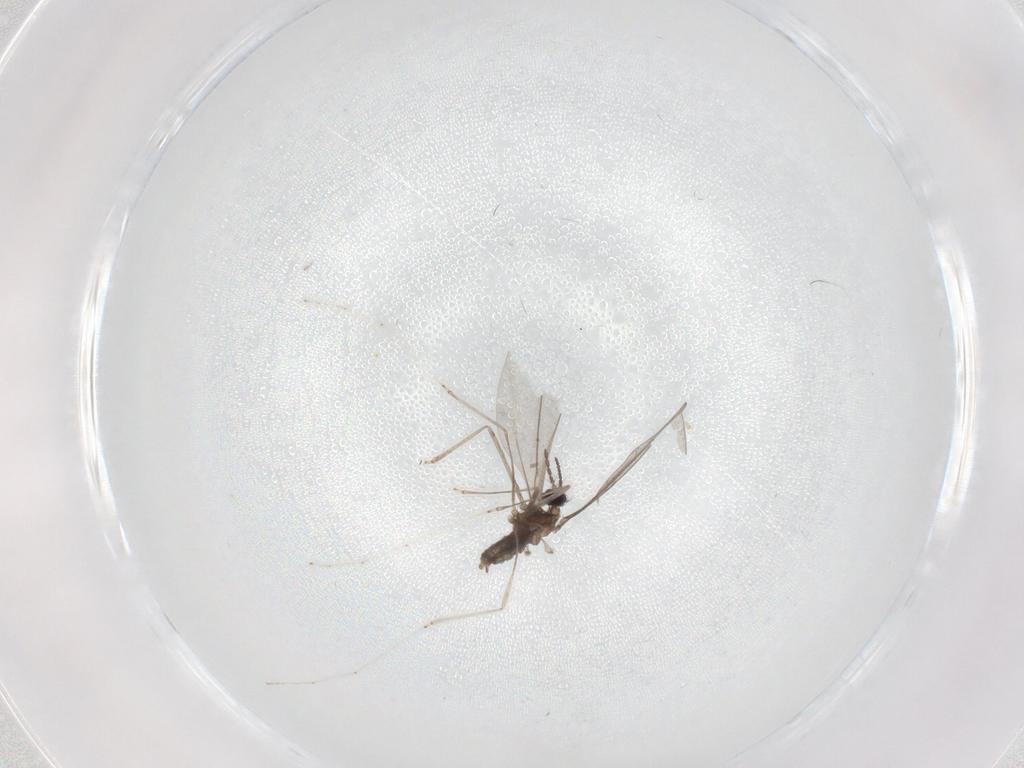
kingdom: Animalia
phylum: Arthropoda
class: Insecta
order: Diptera
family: Cecidomyiidae
